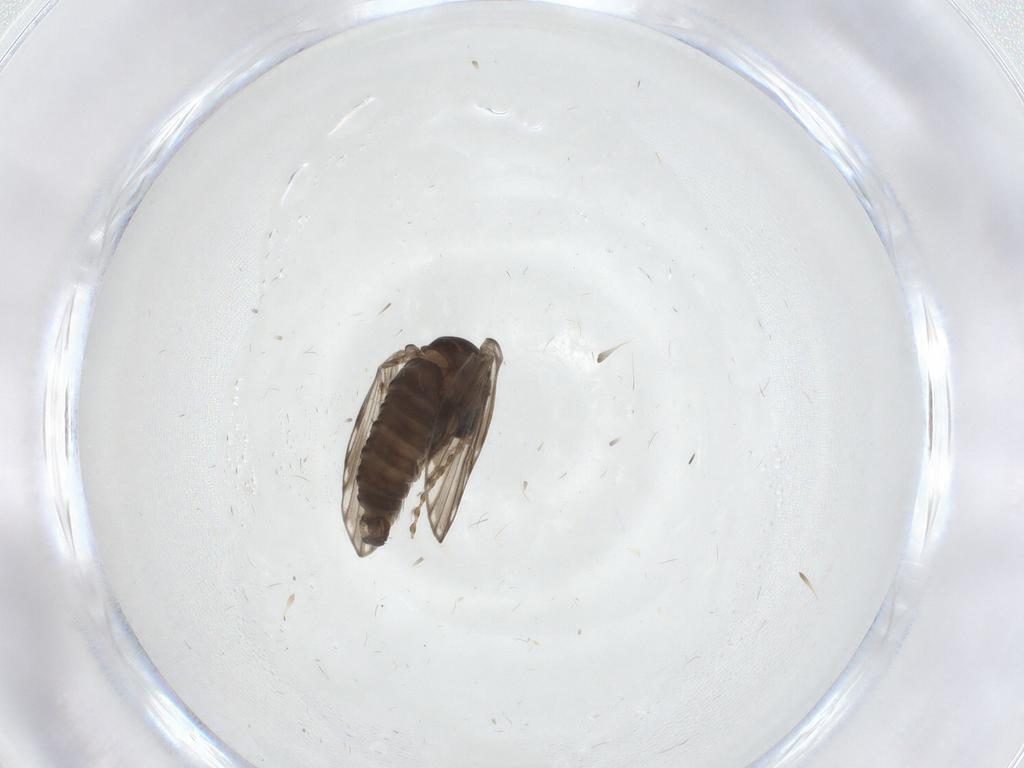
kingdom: Animalia
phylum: Arthropoda
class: Insecta
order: Diptera
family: Psychodidae
